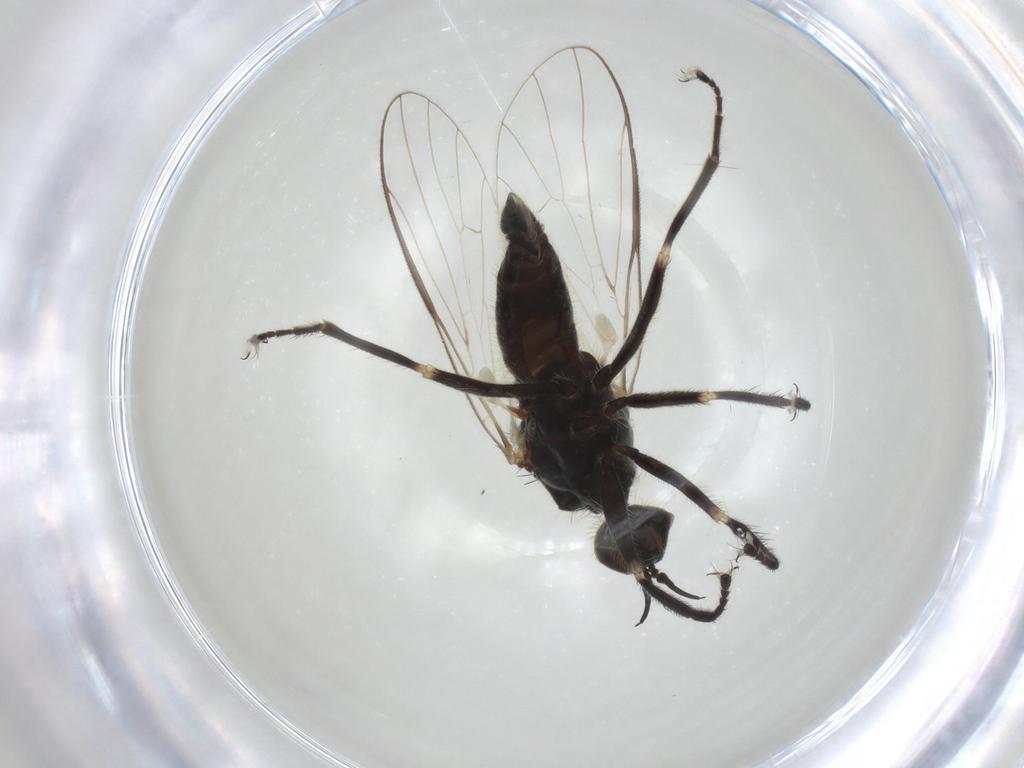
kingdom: Animalia
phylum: Arthropoda
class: Insecta
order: Diptera
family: Empididae
